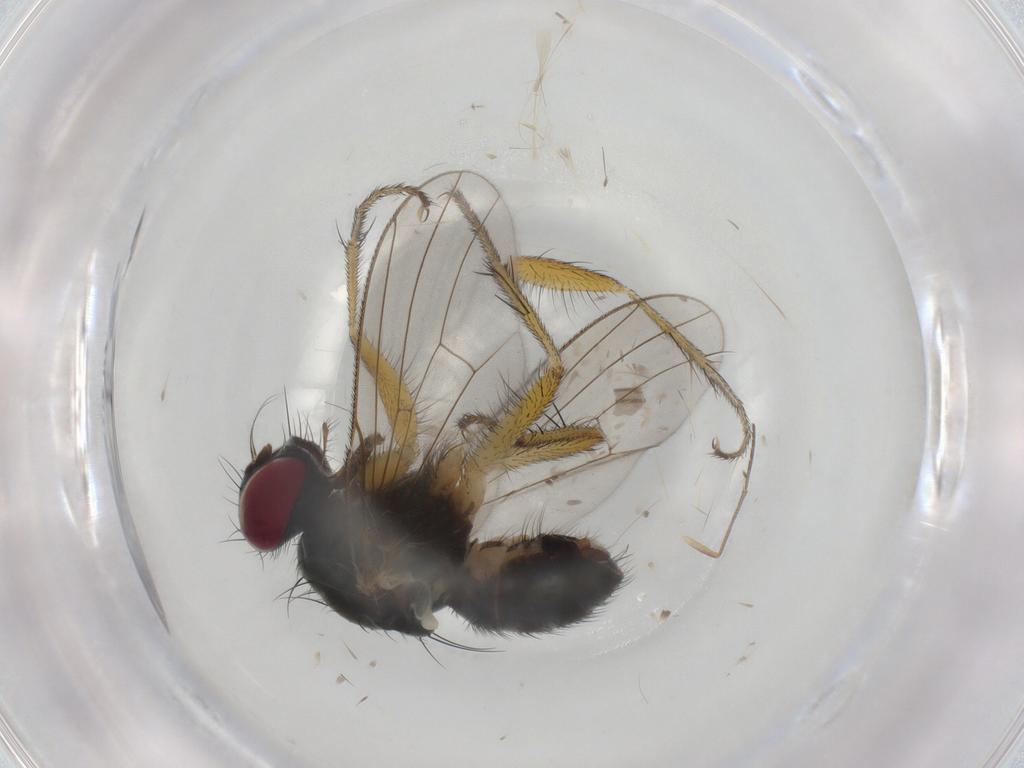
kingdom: Animalia
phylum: Arthropoda
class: Insecta
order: Diptera
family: Muscidae
